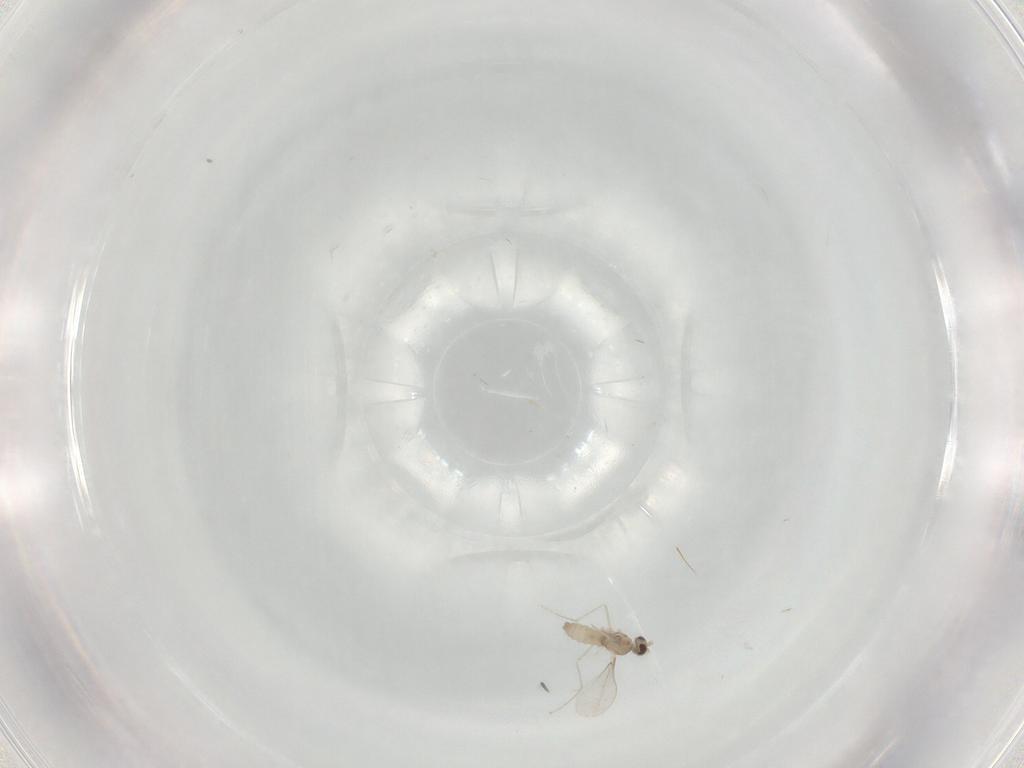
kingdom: Animalia
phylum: Arthropoda
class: Insecta
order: Diptera
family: Cecidomyiidae
